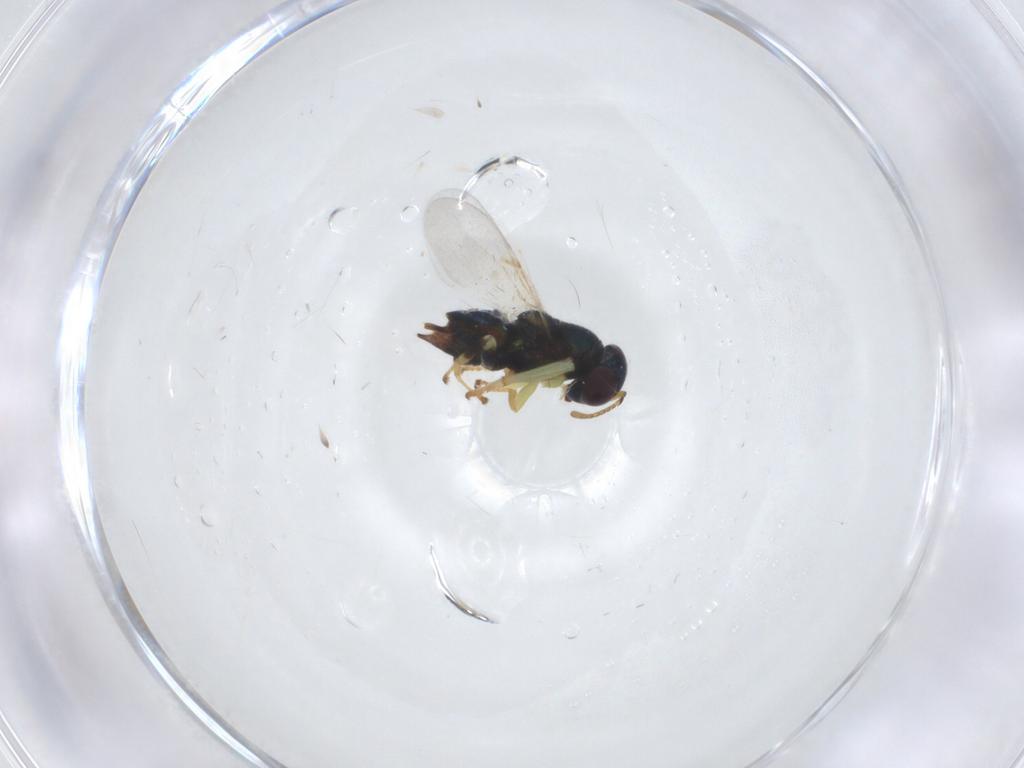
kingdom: Animalia
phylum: Arthropoda
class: Insecta
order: Hymenoptera
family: Encyrtidae
